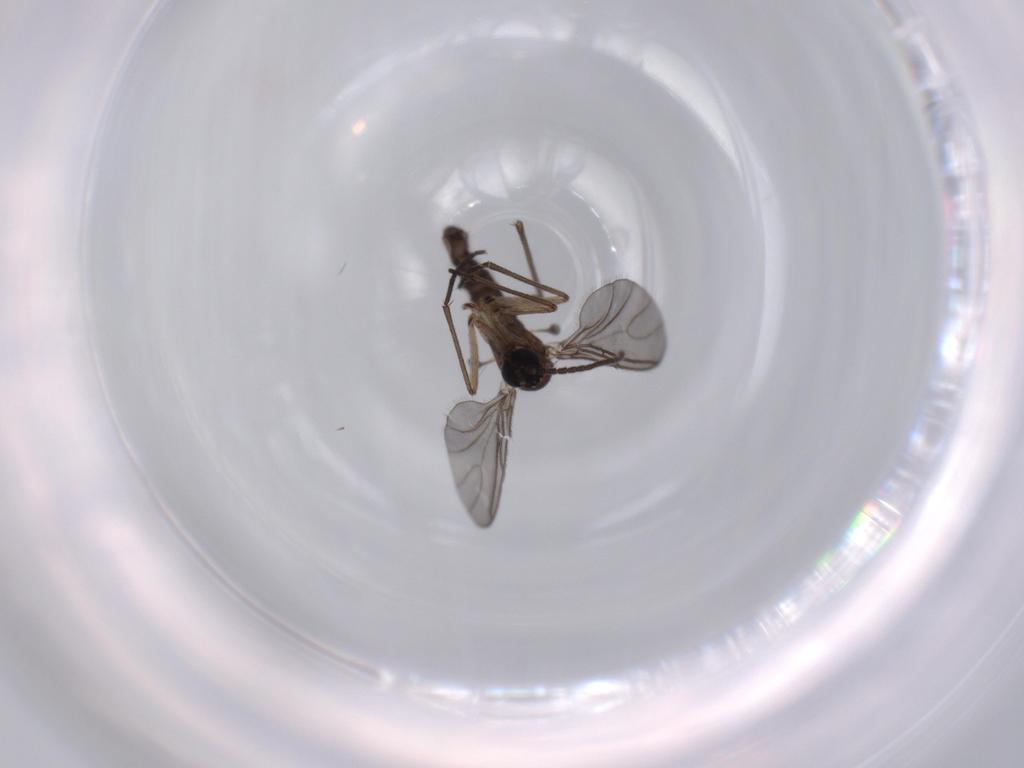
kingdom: Animalia
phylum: Arthropoda
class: Insecta
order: Diptera
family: Sciaridae
